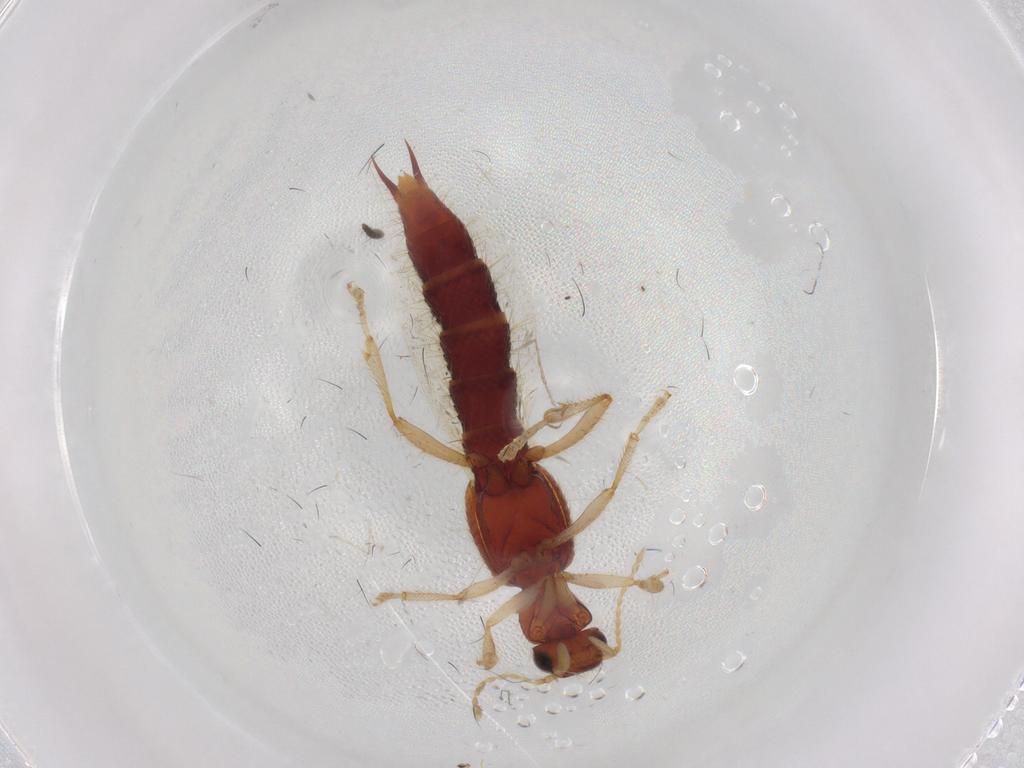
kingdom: Animalia
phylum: Arthropoda
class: Insecta
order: Coleoptera
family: Staphylinidae
